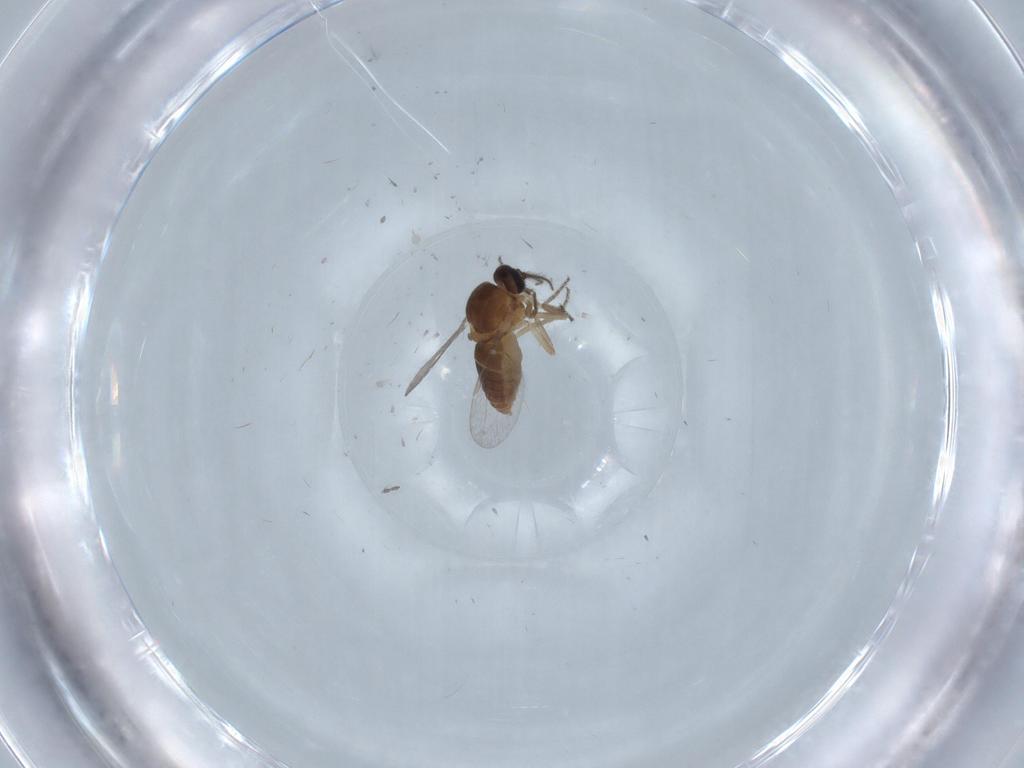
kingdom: Animalia
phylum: Arthropoda
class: Insecta
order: Diptera
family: Ceratopogonidae
